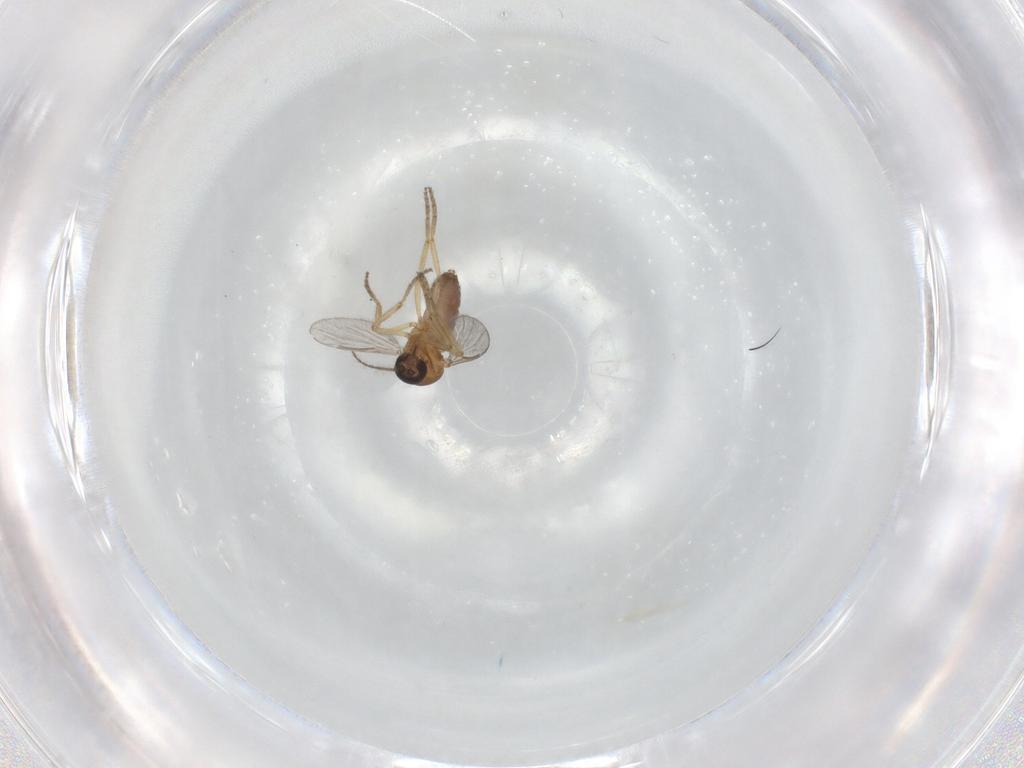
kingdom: Animalia
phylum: Arthropoda
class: Insecta
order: Diptera
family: Ceratopogonidae
